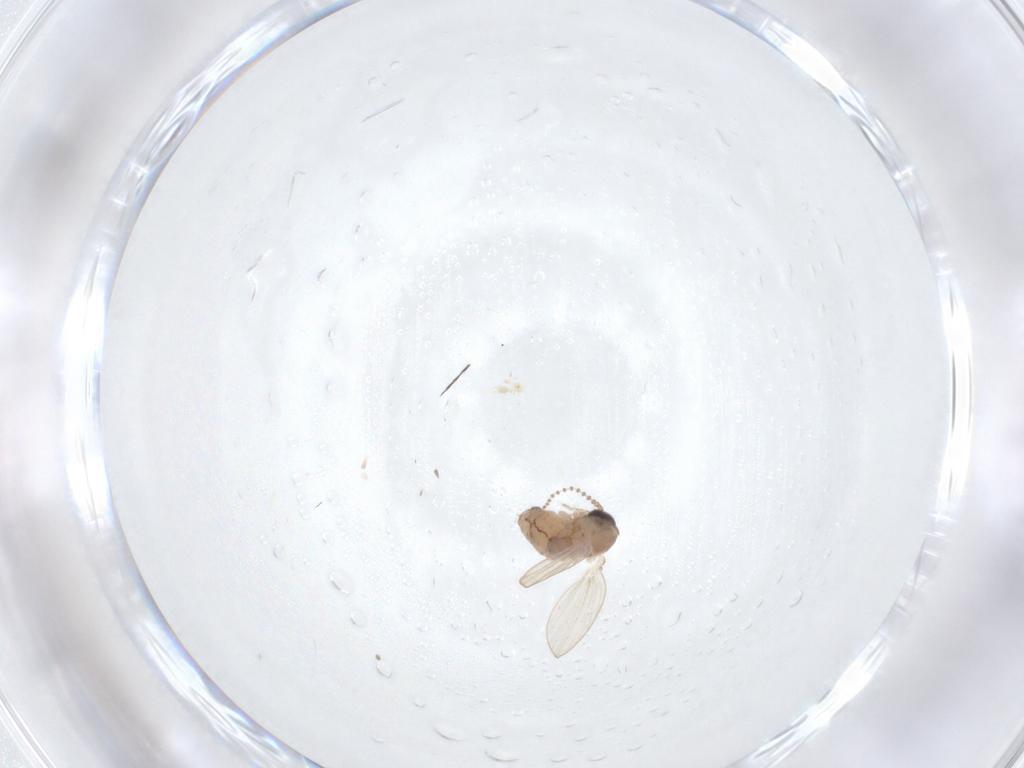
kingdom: Animalia
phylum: Arthropoda
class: Insecta
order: Diptera
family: Psychodidae
